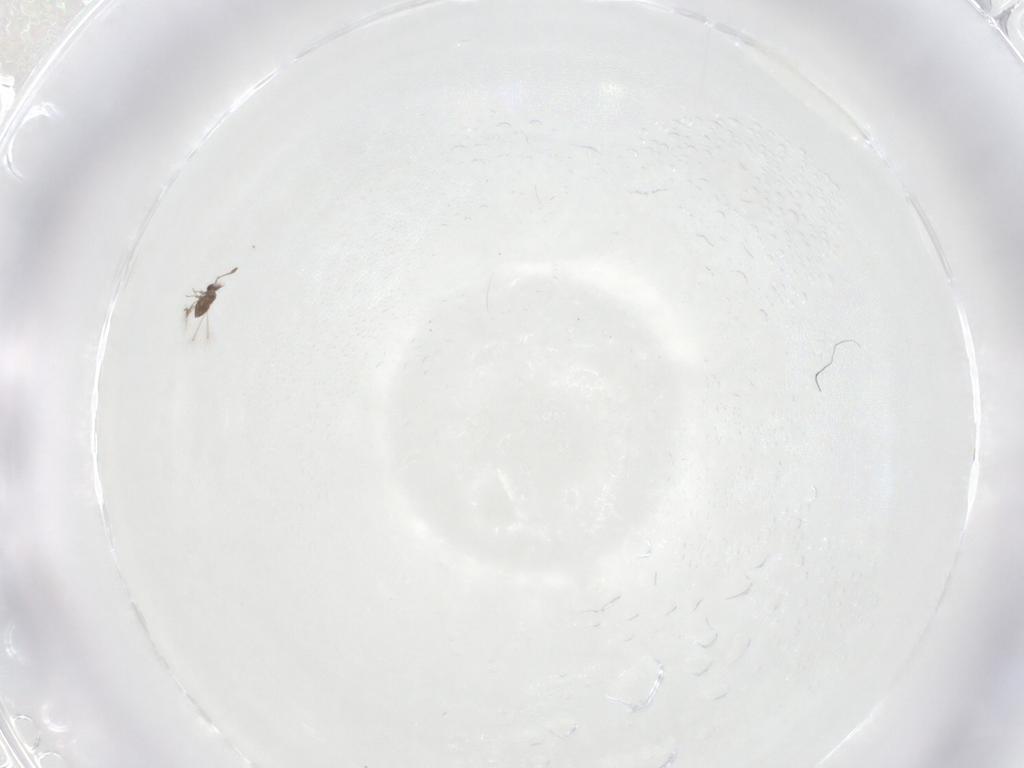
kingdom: Animalia
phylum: Arthropoda
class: Insecta
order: Hymenoptera
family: Mymaridae
